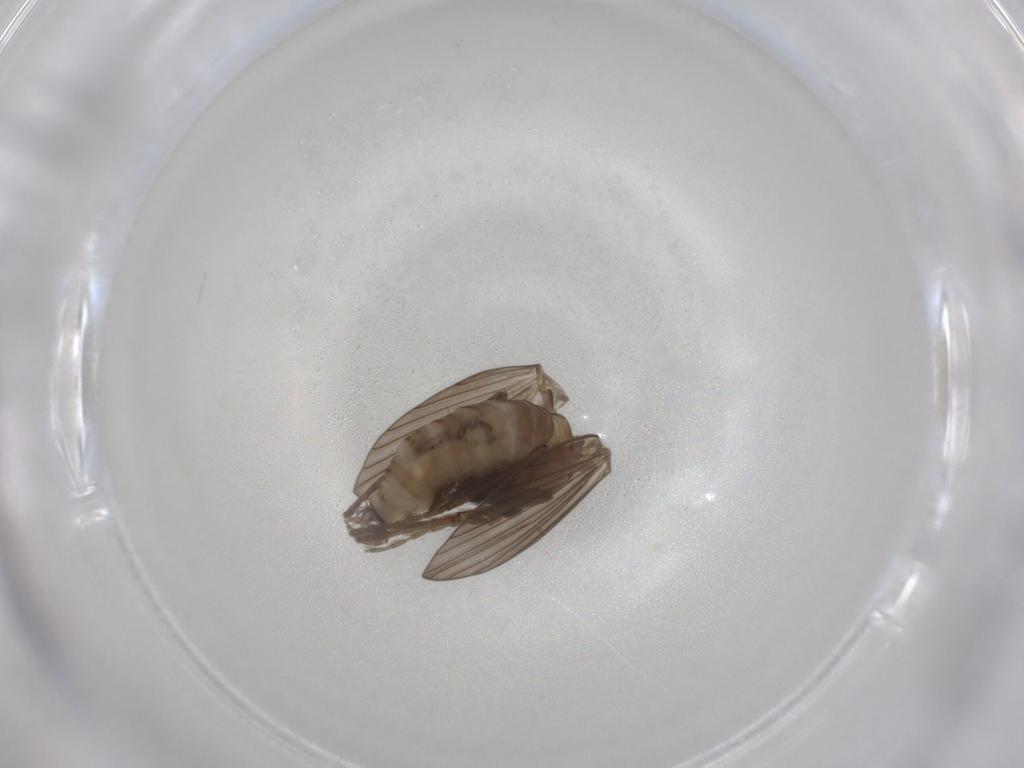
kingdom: Animalia
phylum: Arthropoda
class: Insecta
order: Diptera
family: Psychodidae
